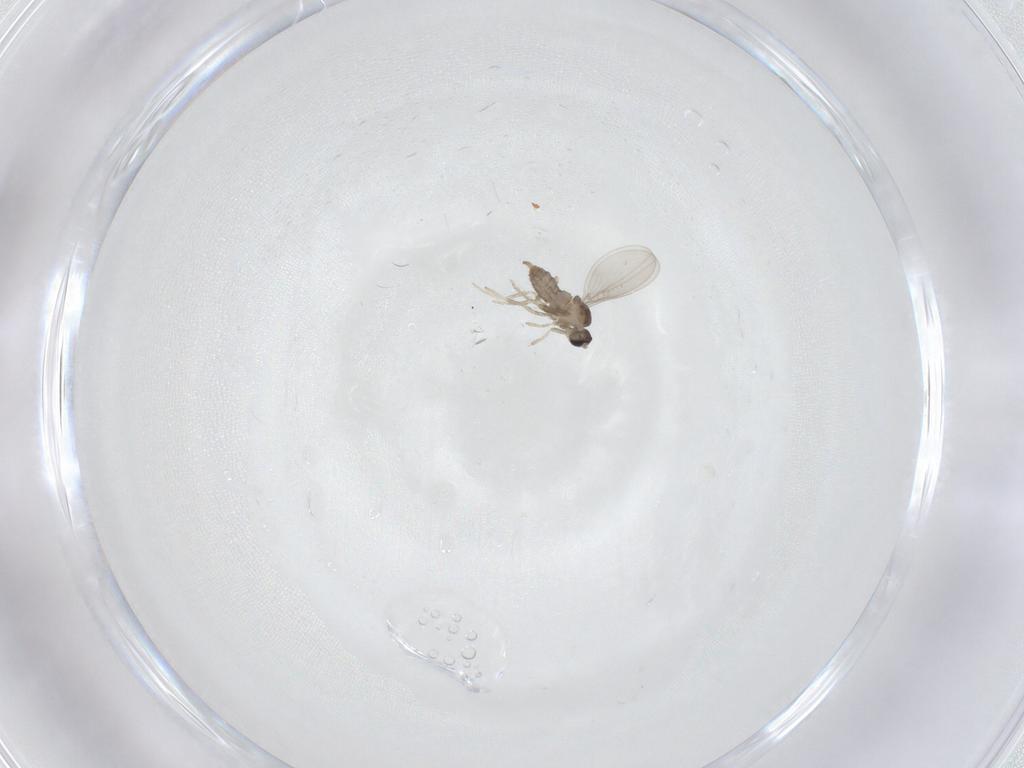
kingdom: Animalia
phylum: Arthropoda
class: Insecta
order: Diptera
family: Cecidomyiidae
